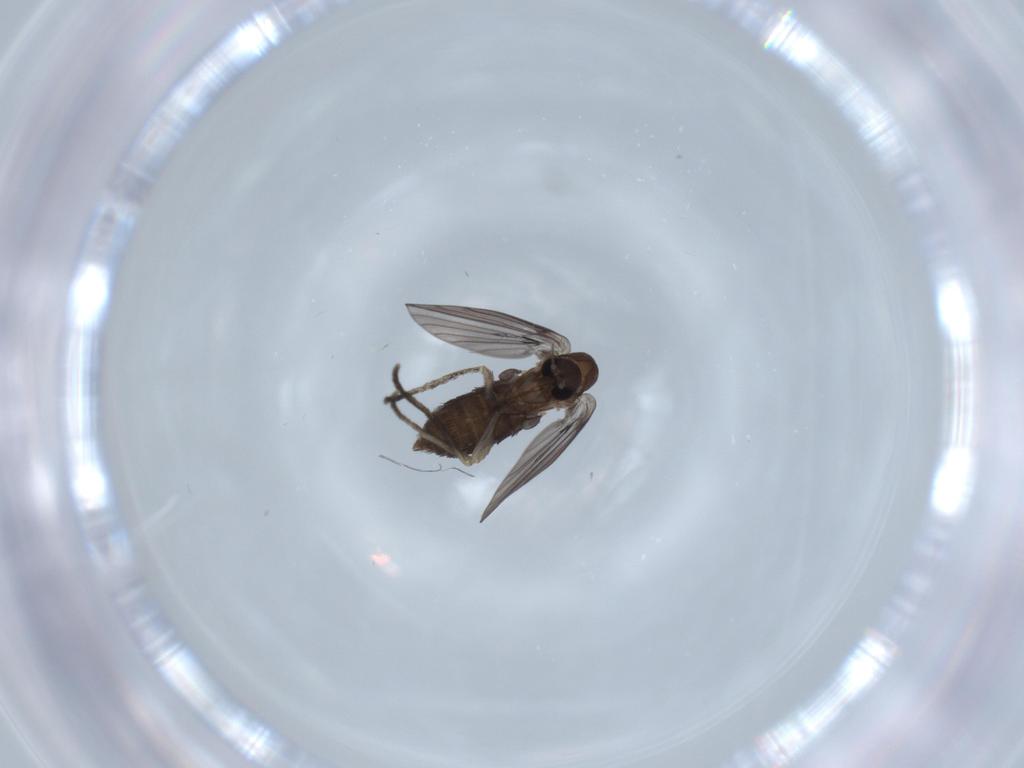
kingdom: Animalia
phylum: Arthropoda
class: Insecta
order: Diptera
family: Psychodidae
